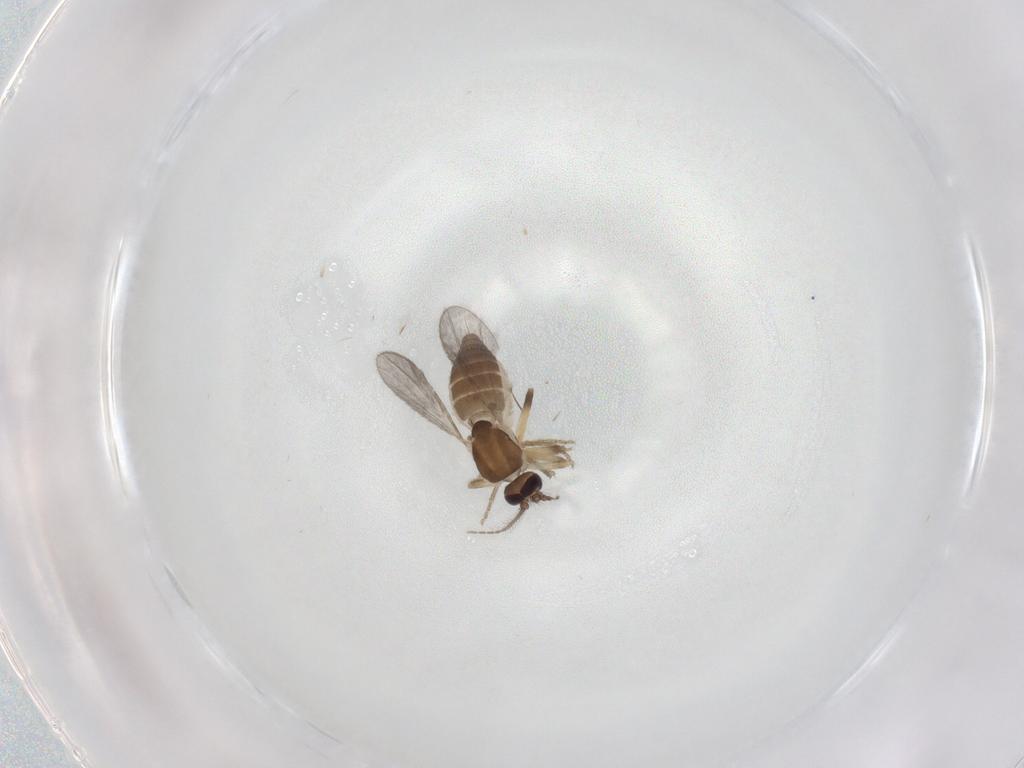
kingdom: Animalia
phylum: Arthropoda
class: Insecta
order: Diptera
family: Ceratopogonidae
